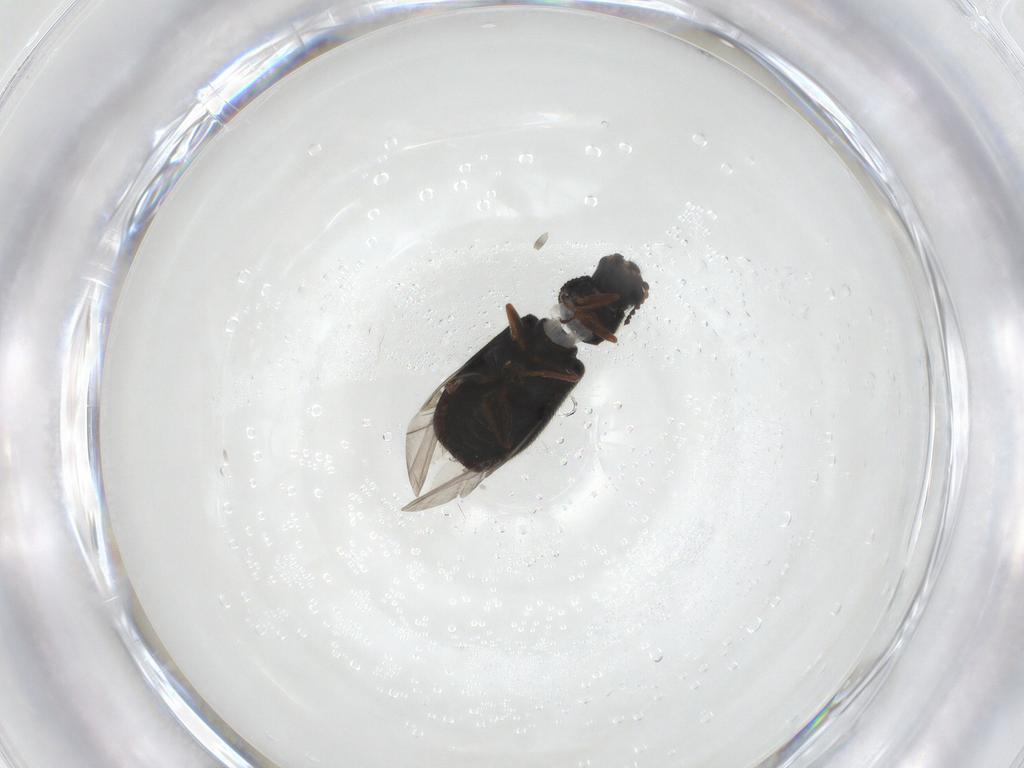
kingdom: Animalia
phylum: Arthropoda
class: Insecta
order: Coleoptera
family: Melyridae
